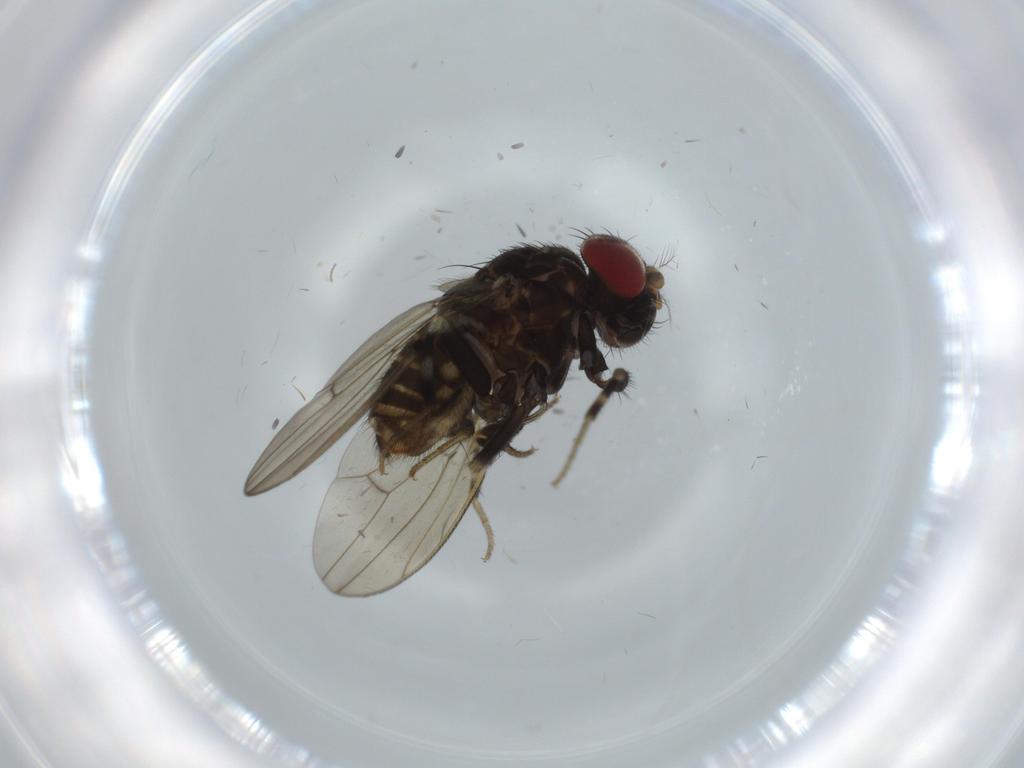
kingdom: Animalia
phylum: Arthropoda
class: Insecta
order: Diptera
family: Drosophilidae
